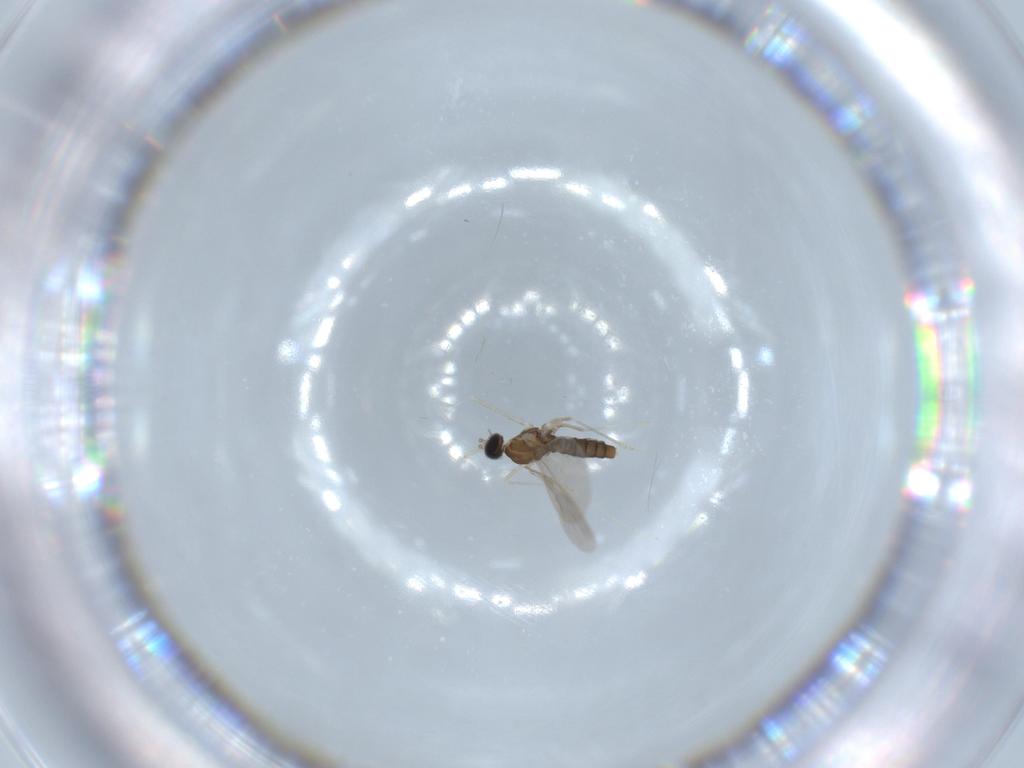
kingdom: Animalia
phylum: Arthropoda
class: Insecta
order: Diptera
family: Cecidomyiidae
